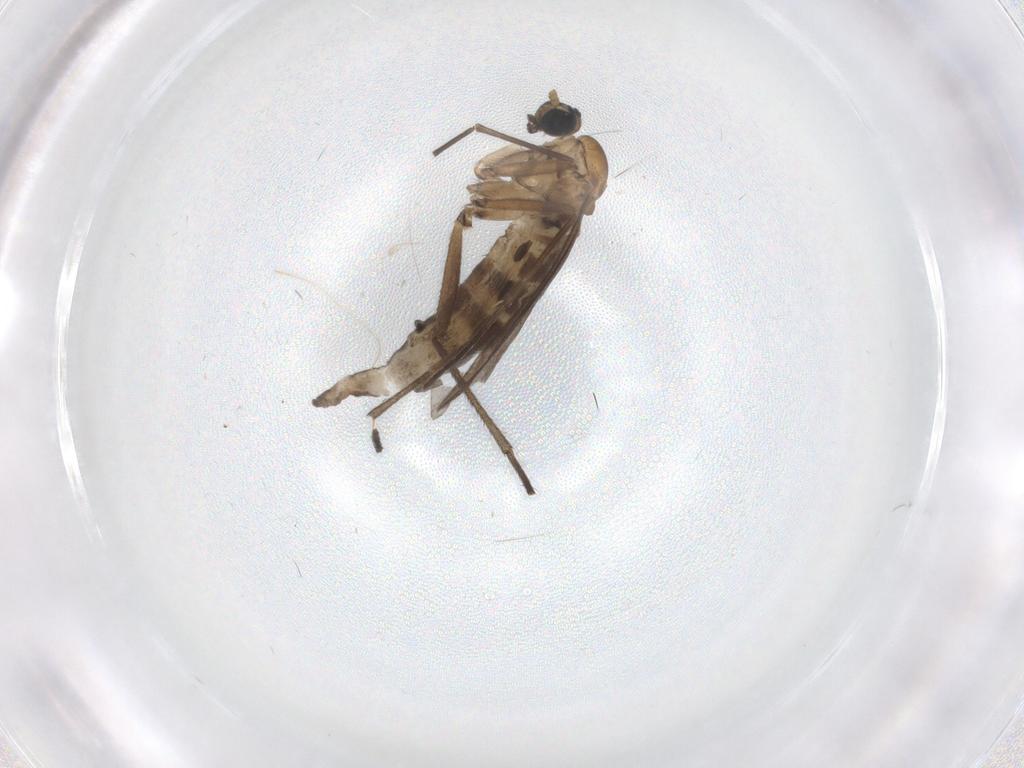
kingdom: Animalia
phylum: Arthropoda
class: Insecta
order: Diptera
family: Sciaridae
